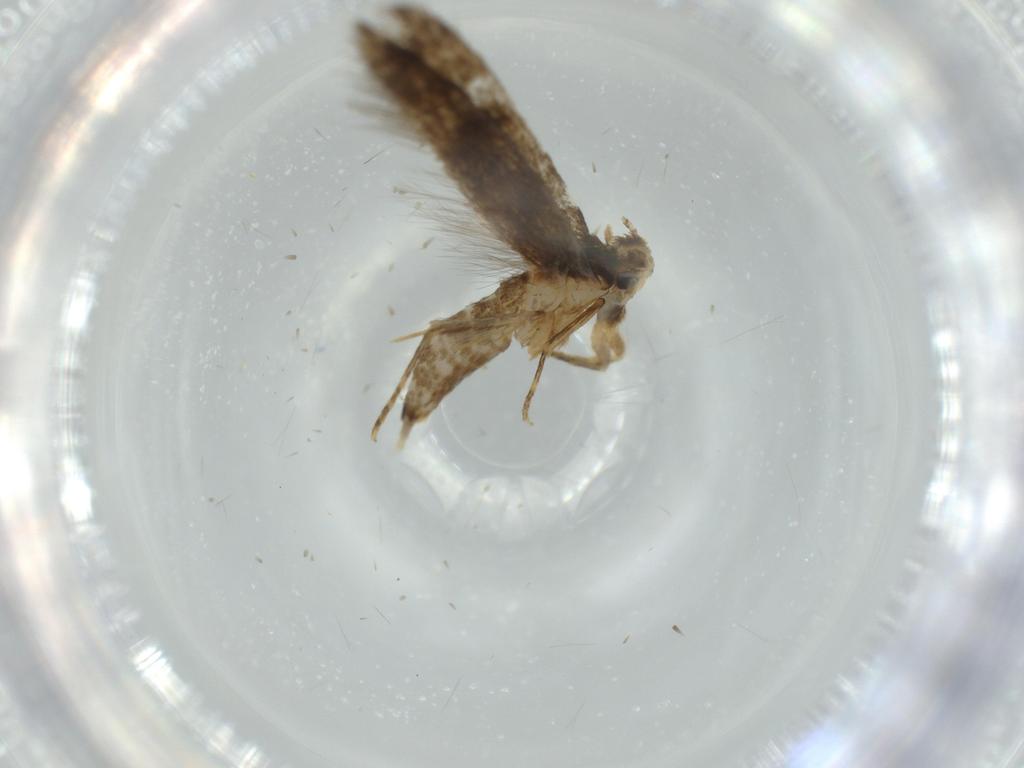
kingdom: Animalia
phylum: Arthropoda
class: Insecta
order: Lepidoptera
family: Tineidae
